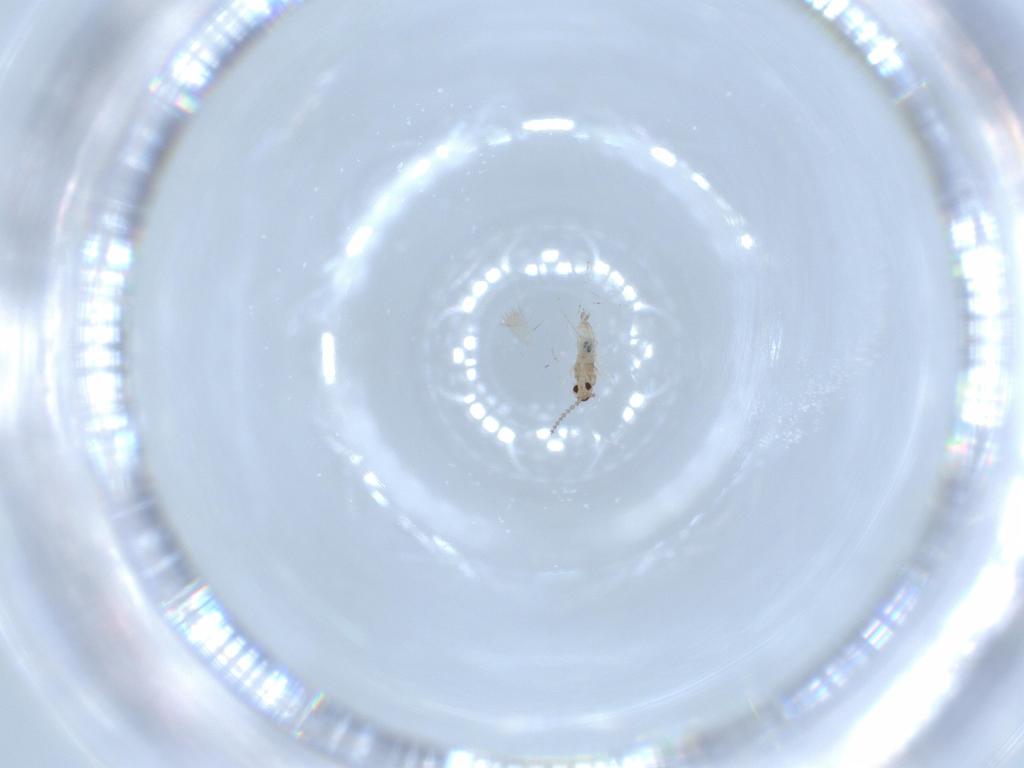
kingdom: Animalia
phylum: Arthropoda
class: Insecta
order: Diptera
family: Cecidomyiidae
